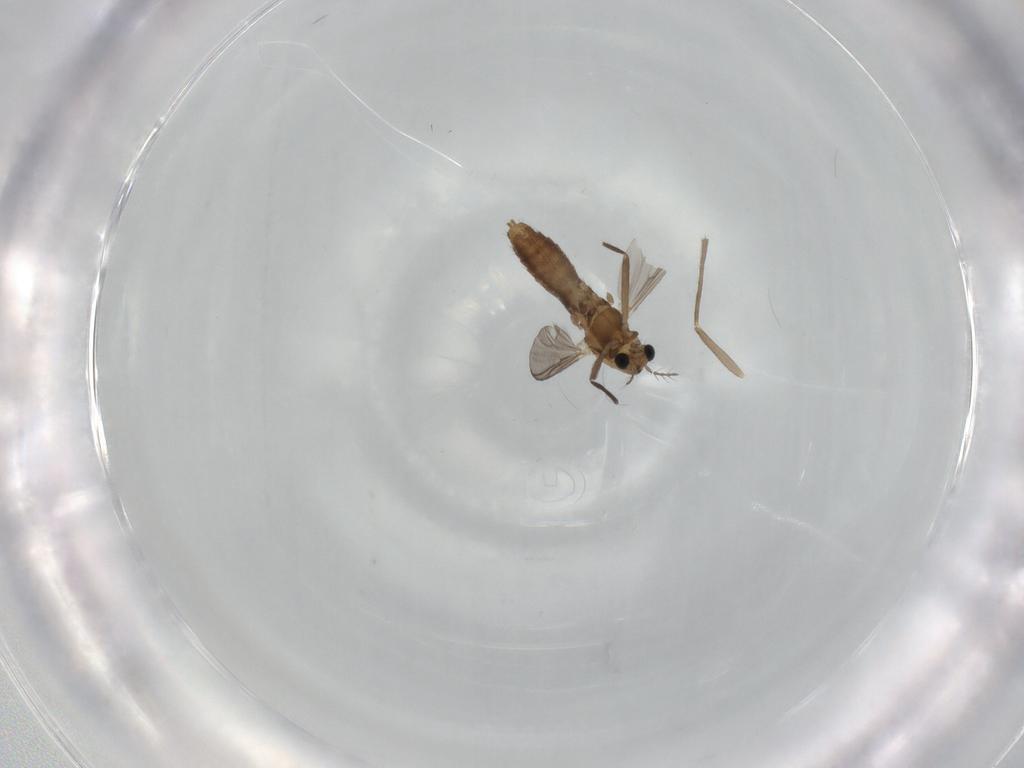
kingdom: Animalia
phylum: Arthropoda
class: Insecta
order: Diptera
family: Chironomidae
